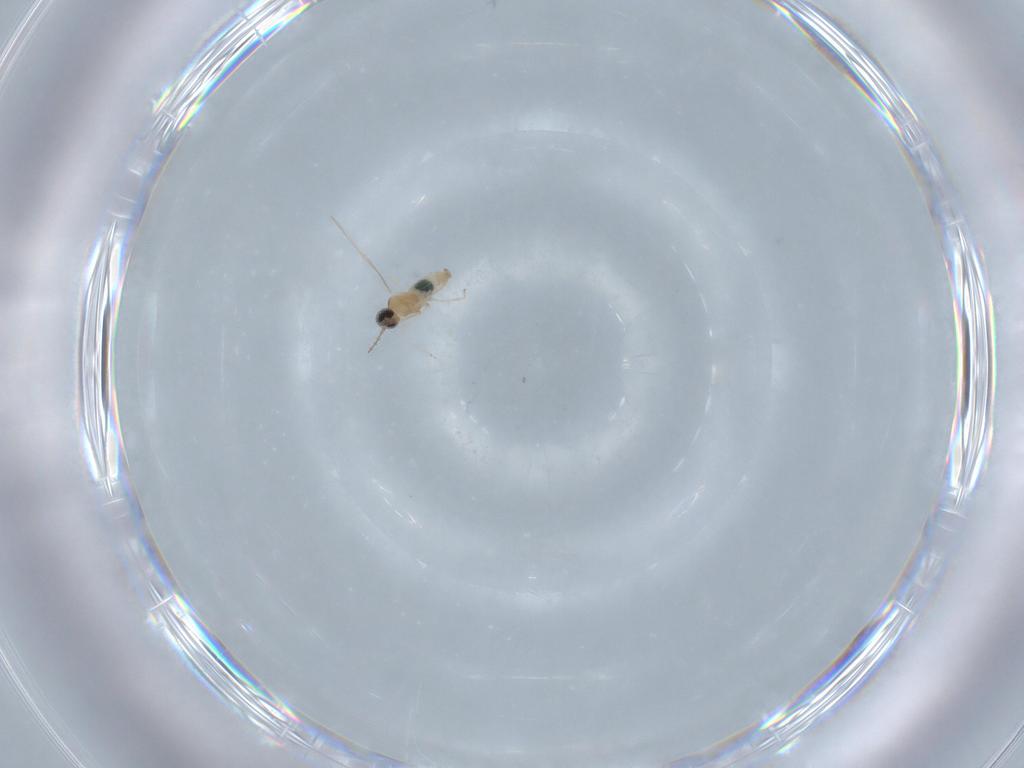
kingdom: Animalia
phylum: Arthropoda
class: Insecta
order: Diptera
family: Cecidomyiidae
